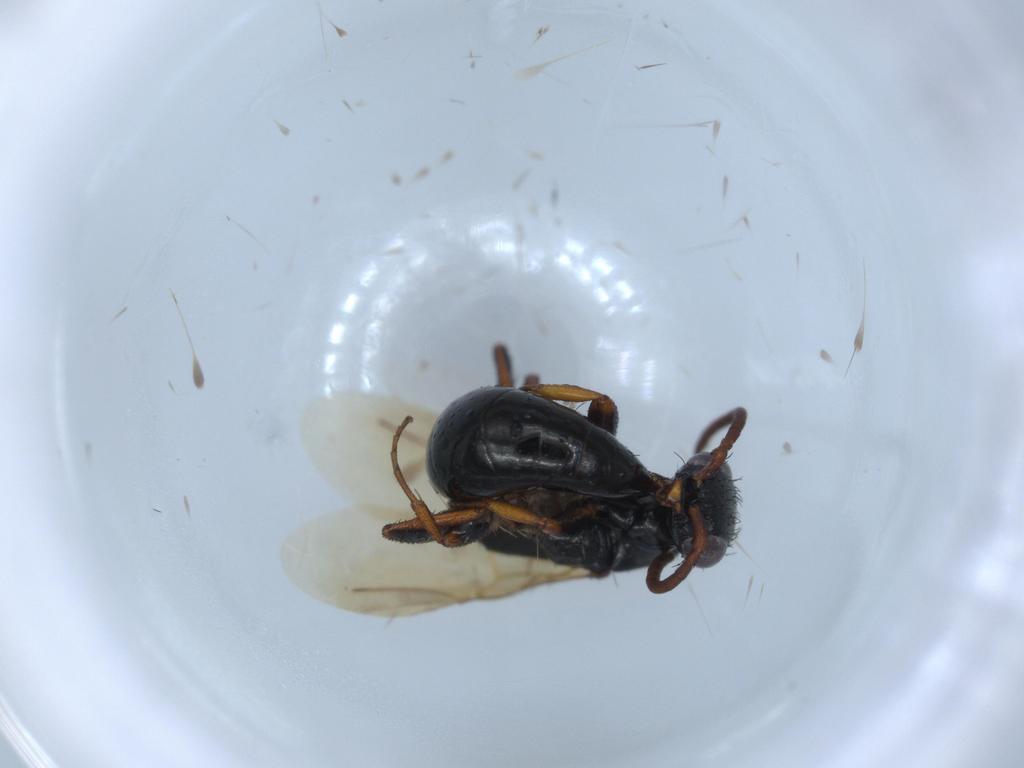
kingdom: Animalia
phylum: Arthropoda
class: Insecta
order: Hymenoptera
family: Bethylidae
